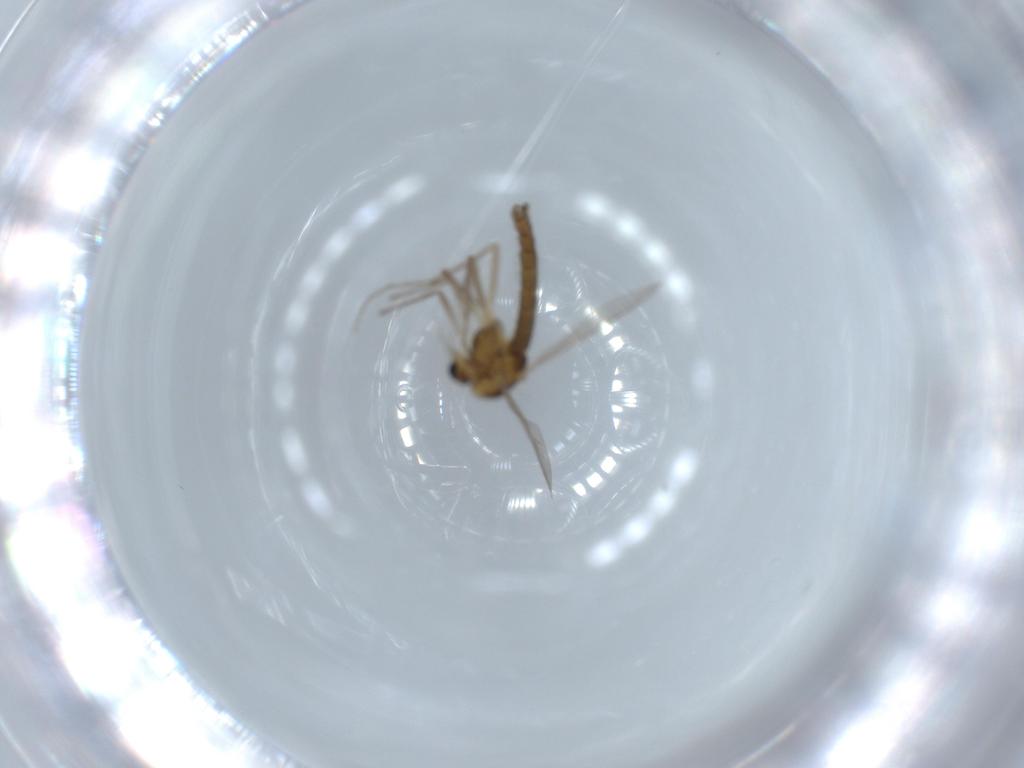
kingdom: Animalia
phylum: Arthropoda
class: Insecta
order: Diptera
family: Chironomidae
